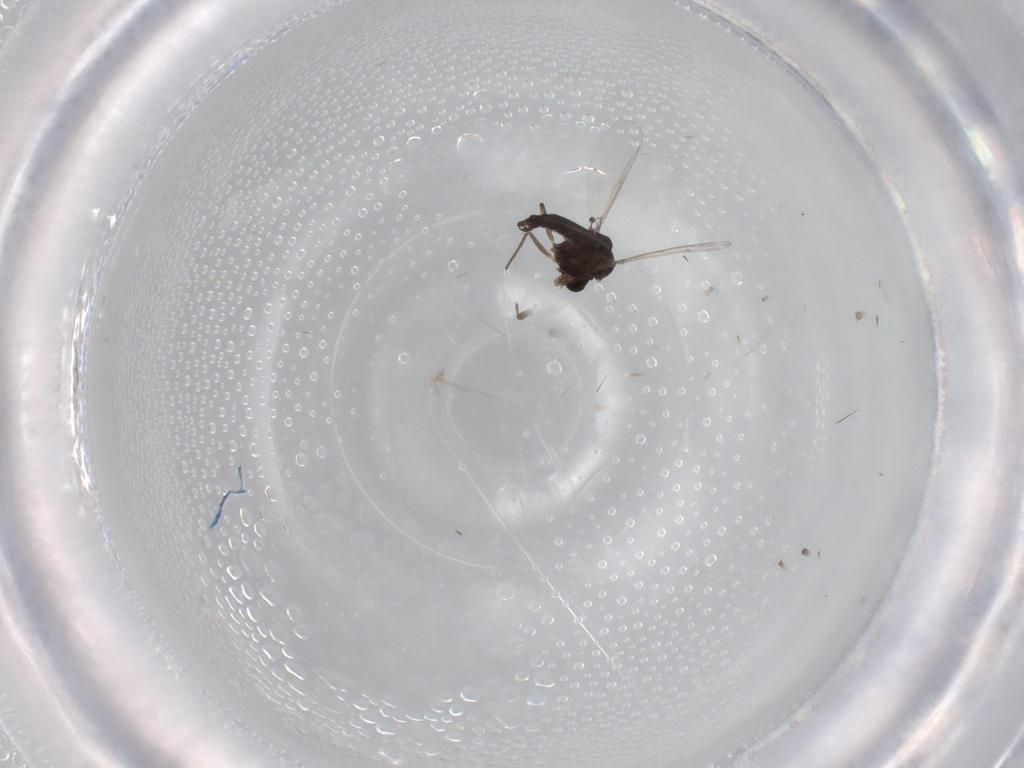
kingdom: Animalia
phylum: Arthropoda
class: Insecta
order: Diptera
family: Chironomidae
